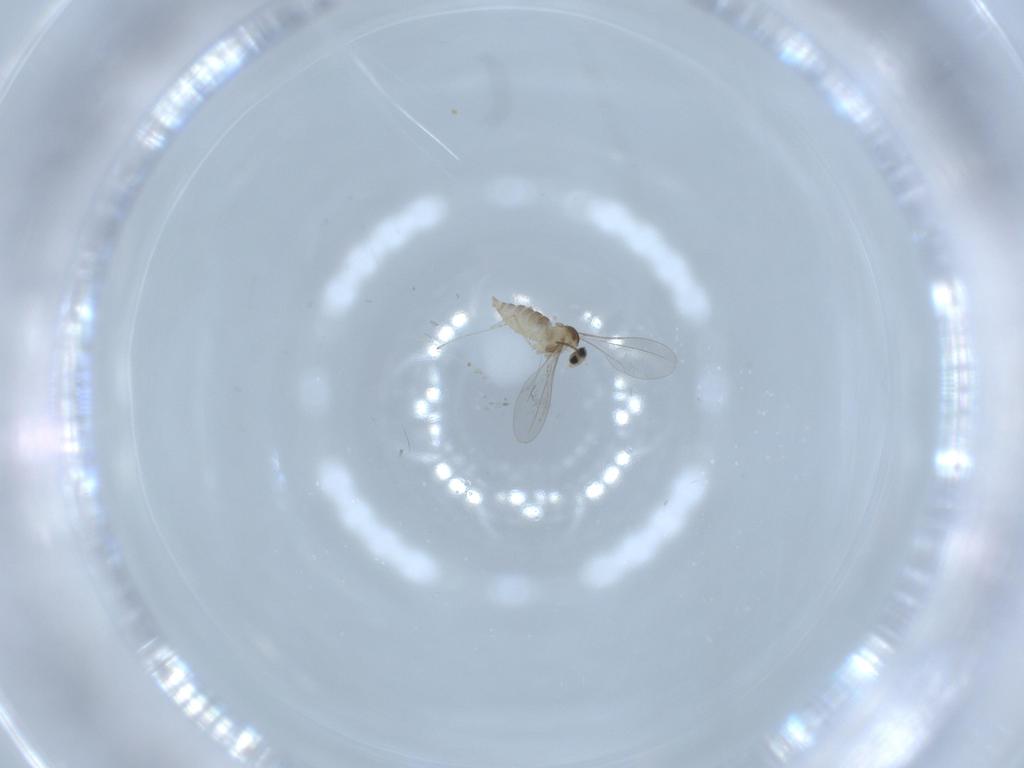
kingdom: Animalia
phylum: Arthropoda
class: Insecta
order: Diptera
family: Cecidomyiidae
